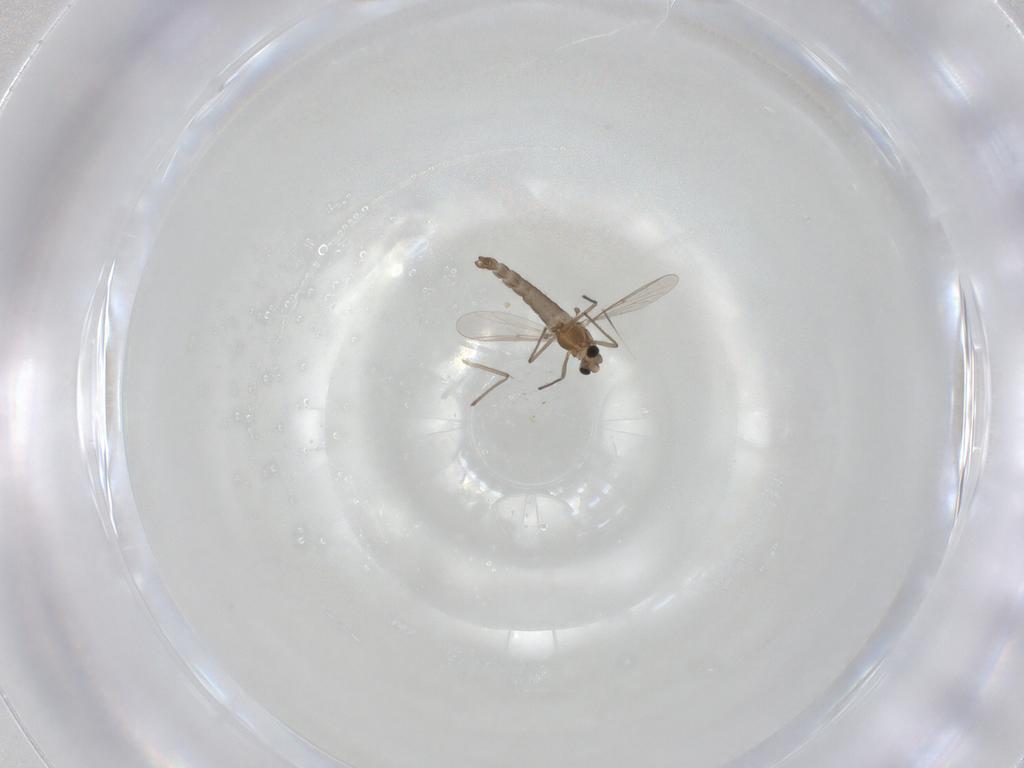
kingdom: Animalia
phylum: Arthropoda
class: Insecta
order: Diptera
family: Chironomidae
